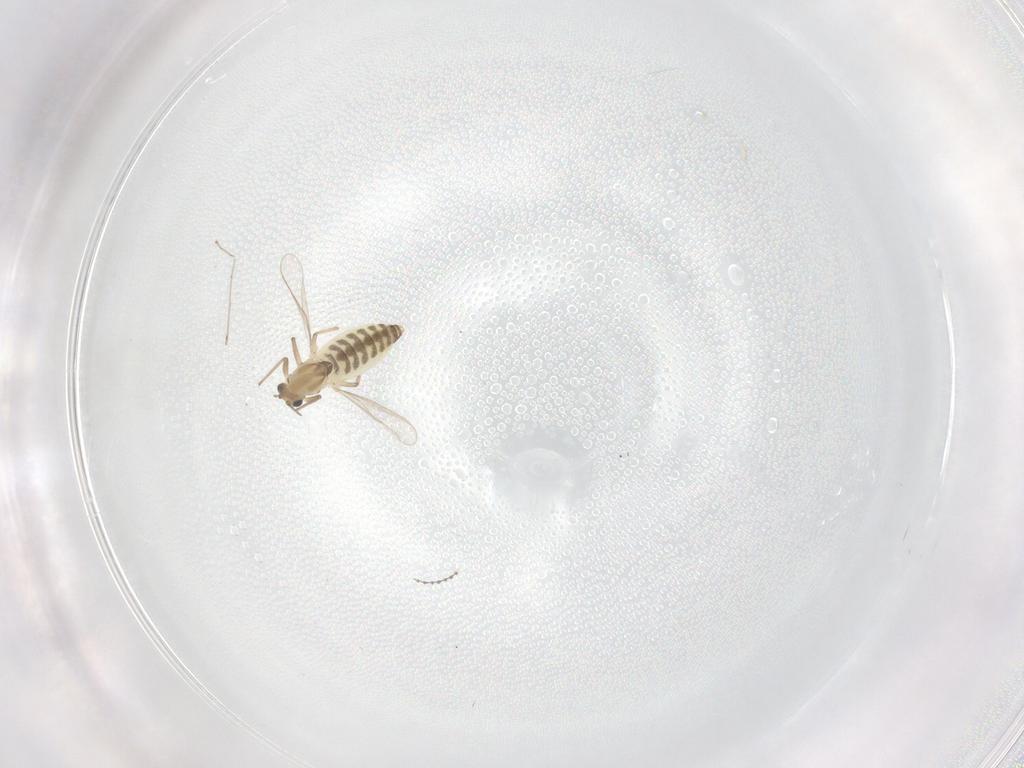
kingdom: Animalia
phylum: Arthropoda
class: Insecta
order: Diptera
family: Cecidomyiidae
